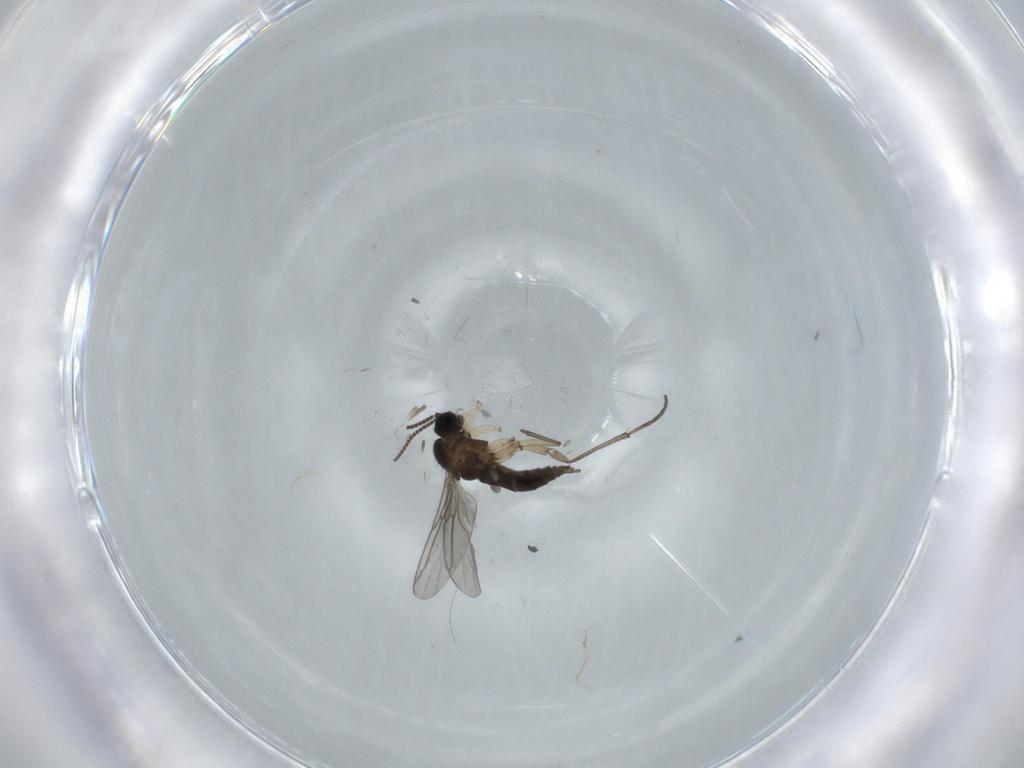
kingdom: Animalia
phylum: Arthropoda
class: Insecta
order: Diptera
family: Sciaridae
